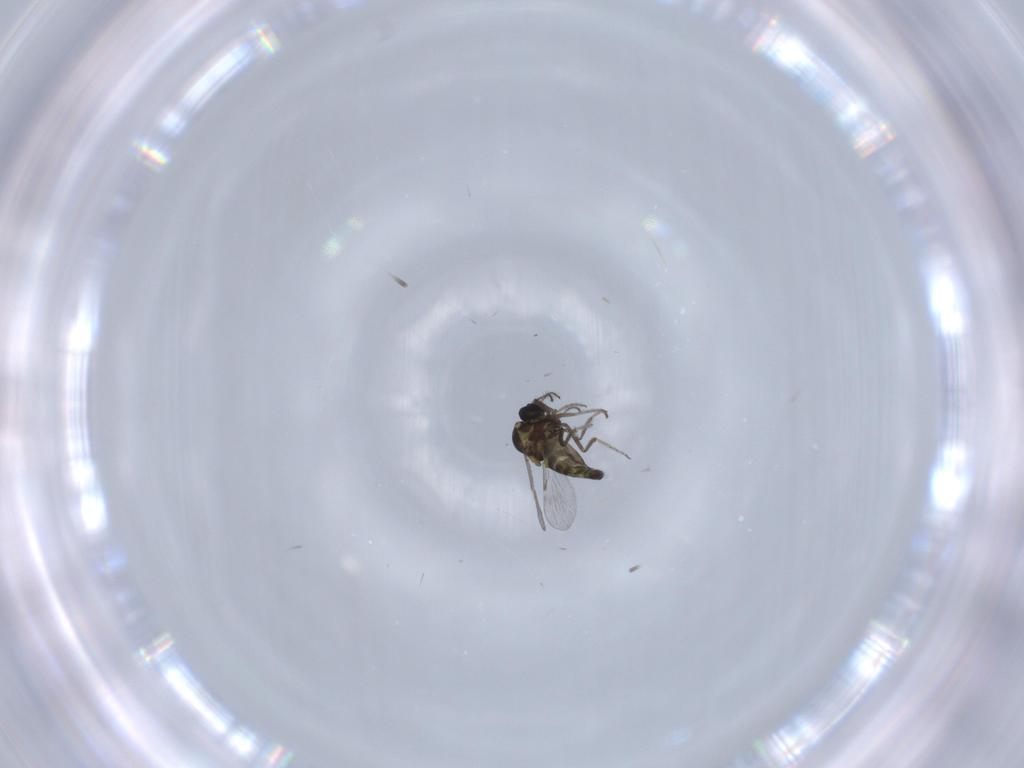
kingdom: Animalia
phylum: Arthropoda
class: Insecta
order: Diptera
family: Ceratopogonidae
